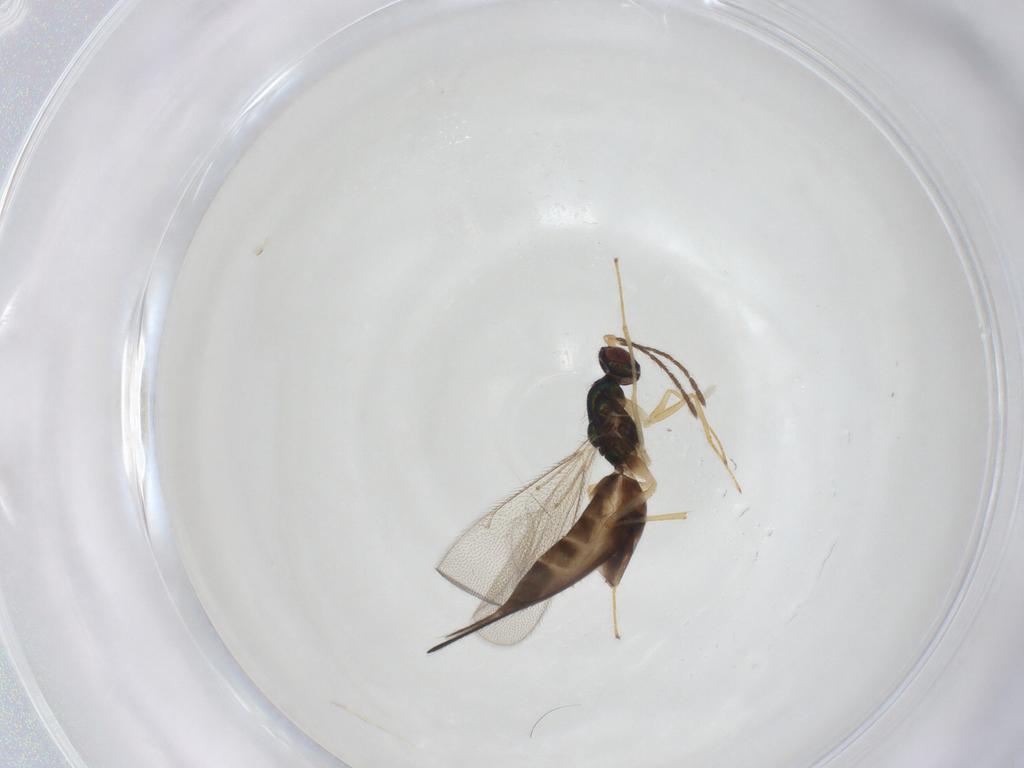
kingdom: Animalia
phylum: Arthropoda
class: Insecta
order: Hymenoptera
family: Eulophidae
